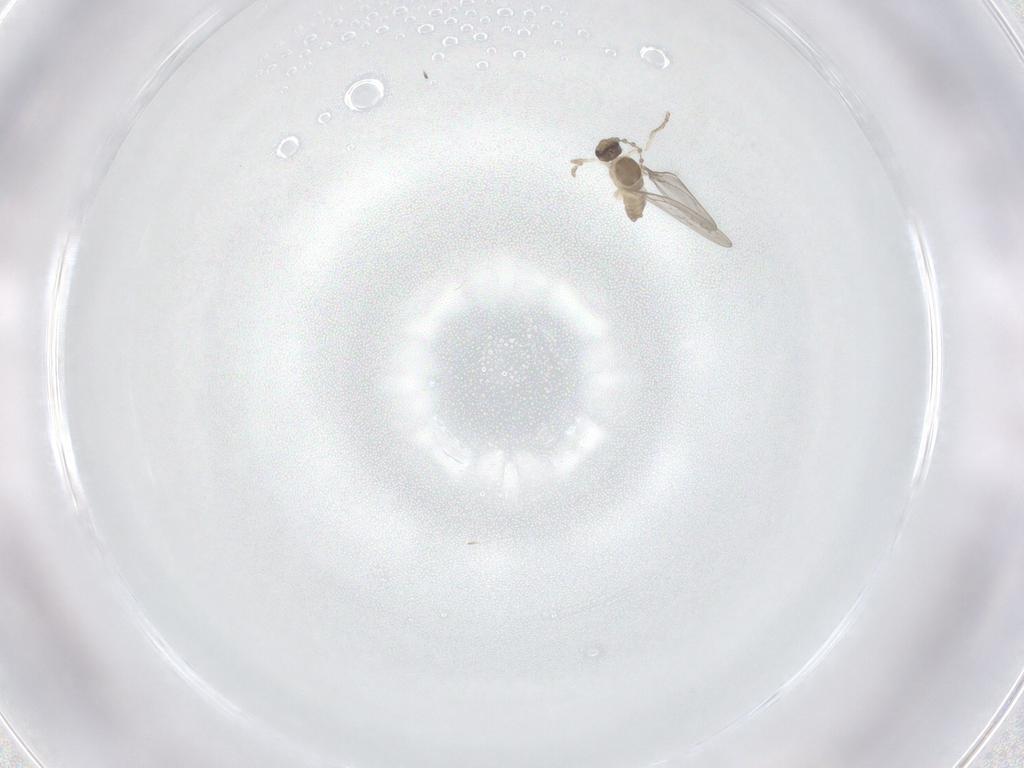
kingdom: Animalia
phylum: Arthropoda
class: Insecta
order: Diptera
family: Cecidomyiidae
